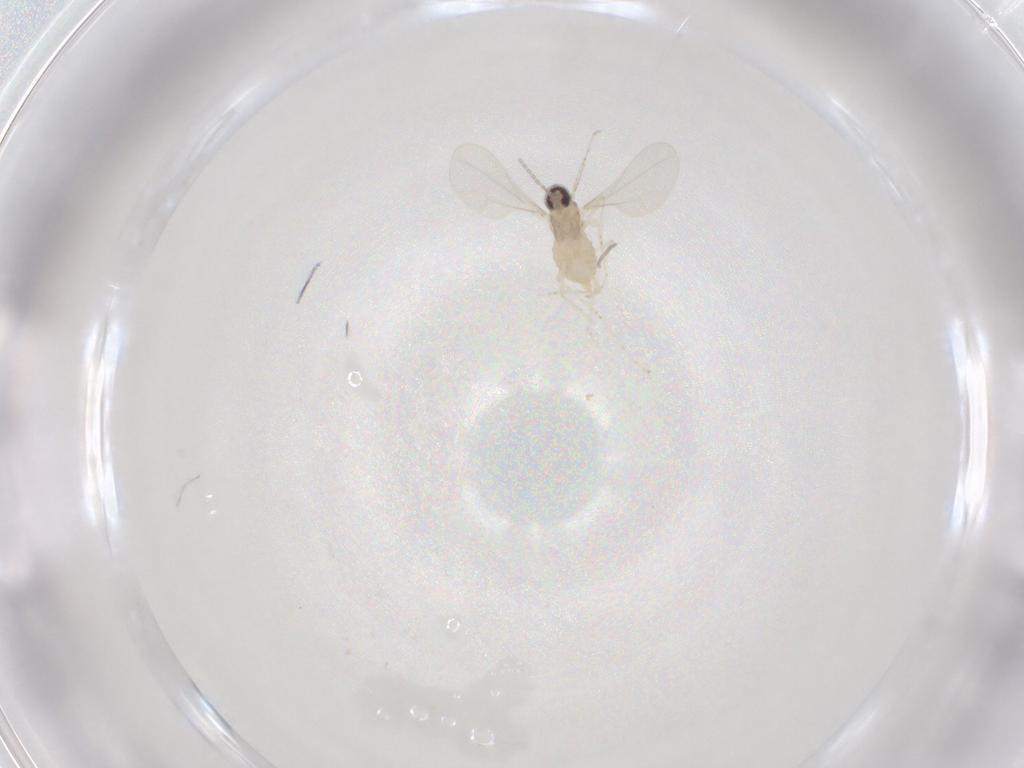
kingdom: Animalia
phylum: Arthropoda
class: Insecta
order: Diptera
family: Cecidomyiidae
